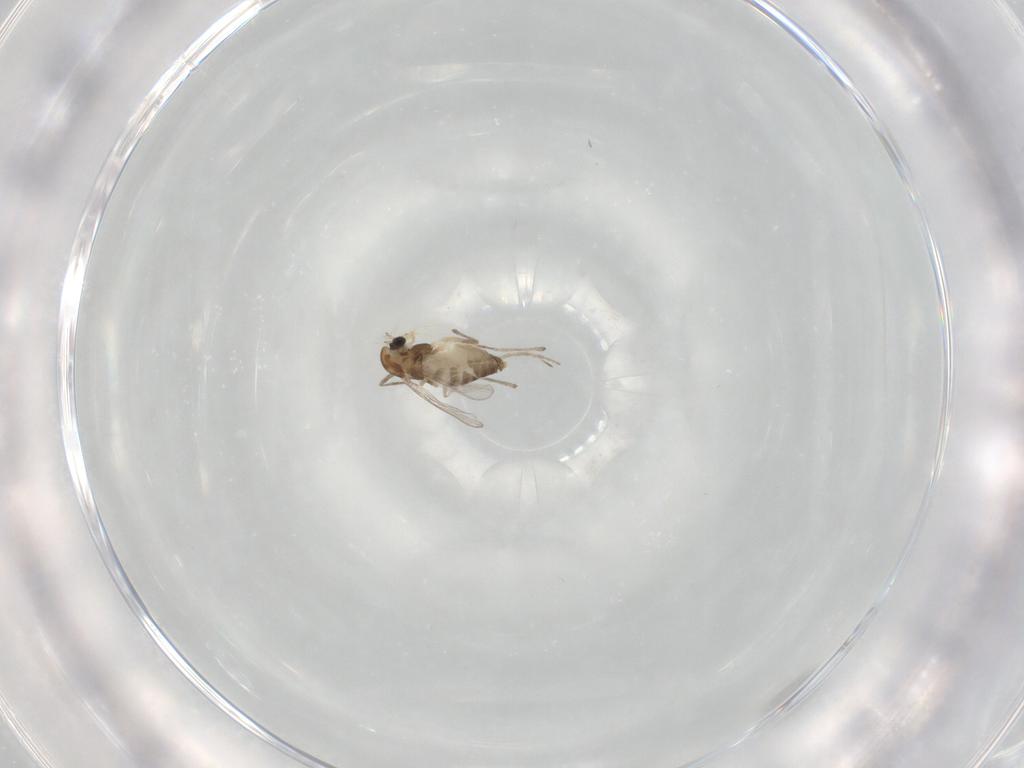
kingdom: Animalia
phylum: Arthropoda
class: Insecta
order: Diptera
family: Chironomidae
